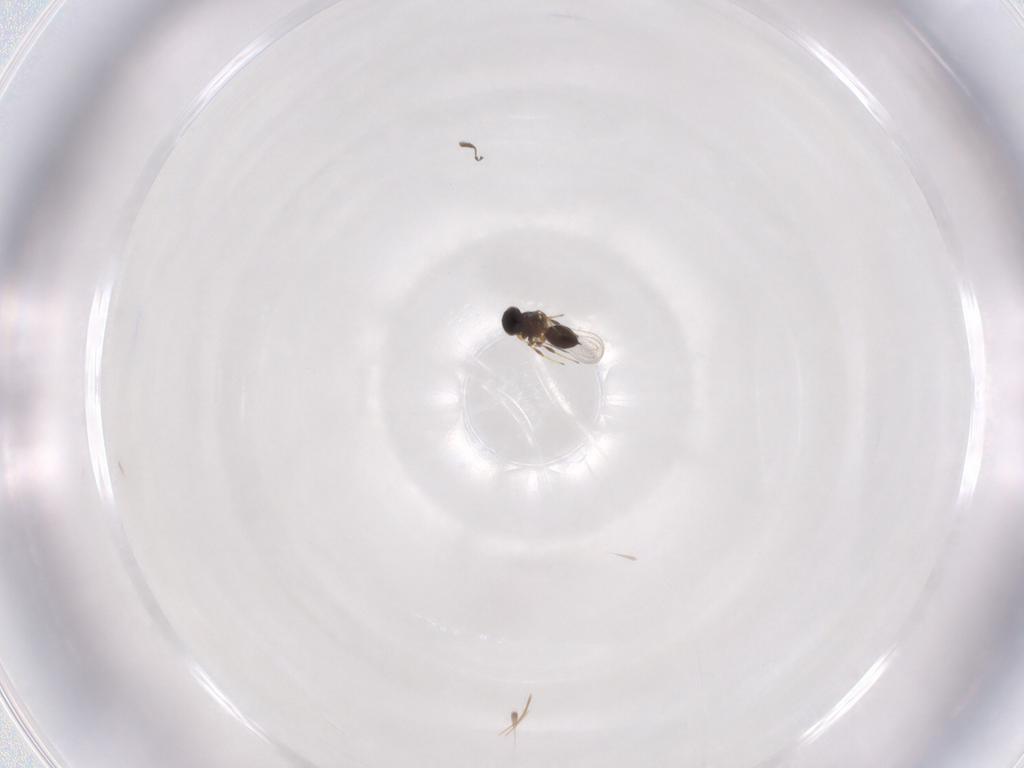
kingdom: Animalia
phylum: Arthropoda
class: Insecta
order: Hymenoptera
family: Platygastridae
